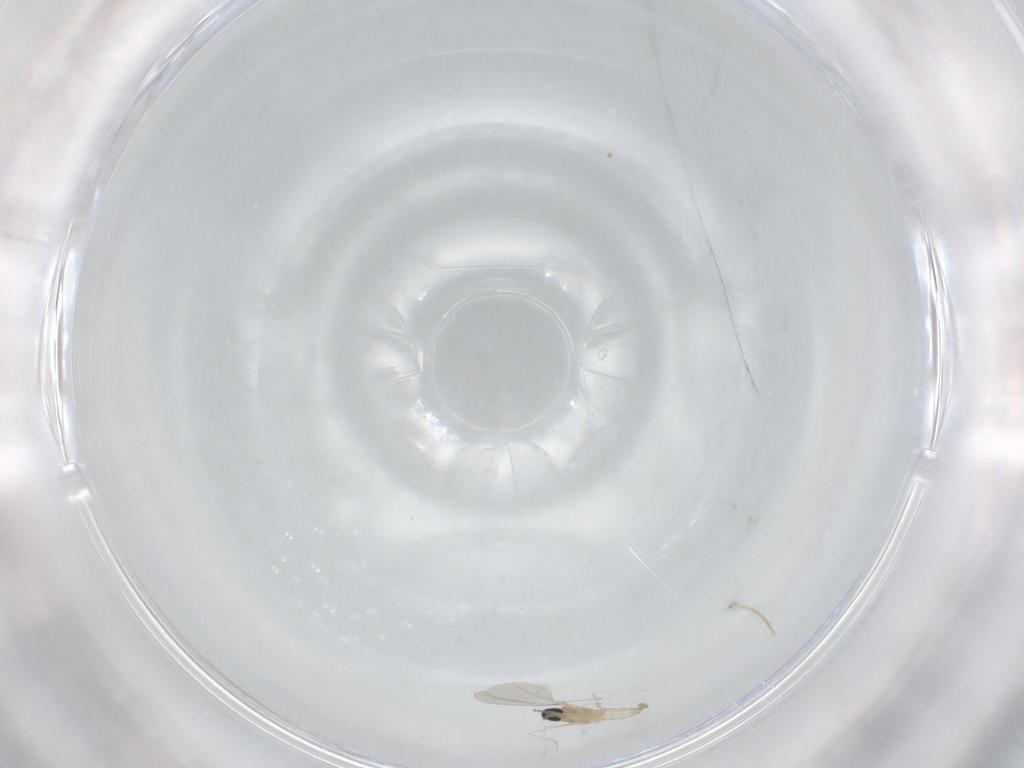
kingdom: Animalia
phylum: Arthropoda
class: Insecta
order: Diptera
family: Cecidomyiidae
